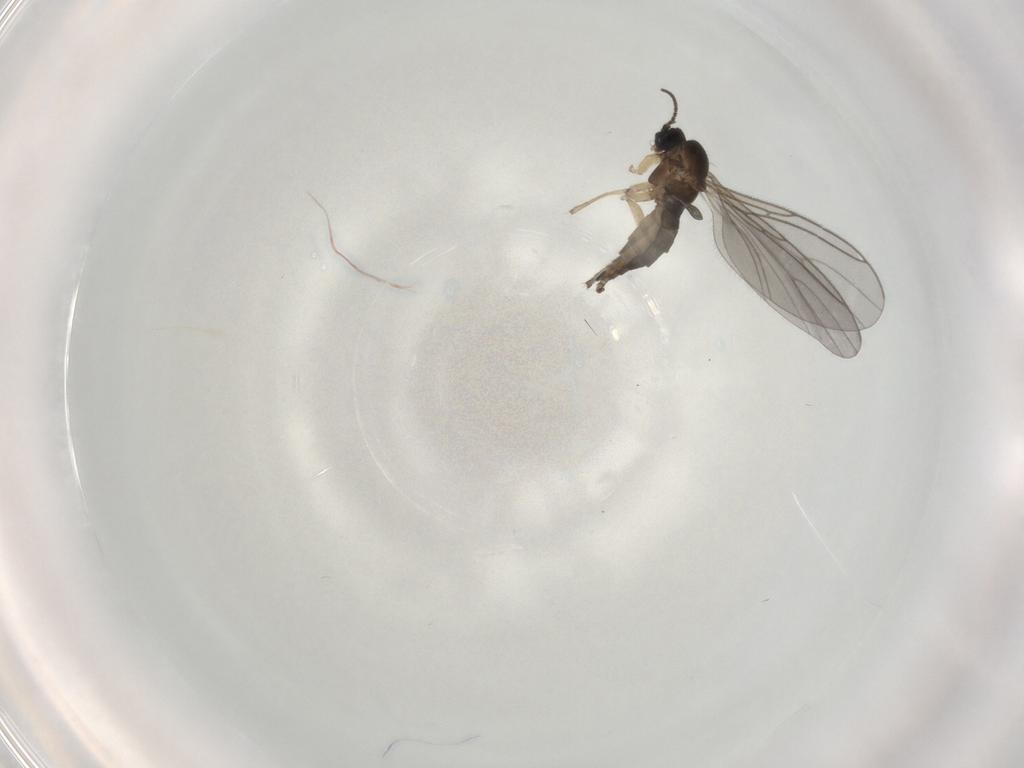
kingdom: Animalia
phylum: Arthropoda
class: Insecta
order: Diptera
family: Sciaridae
